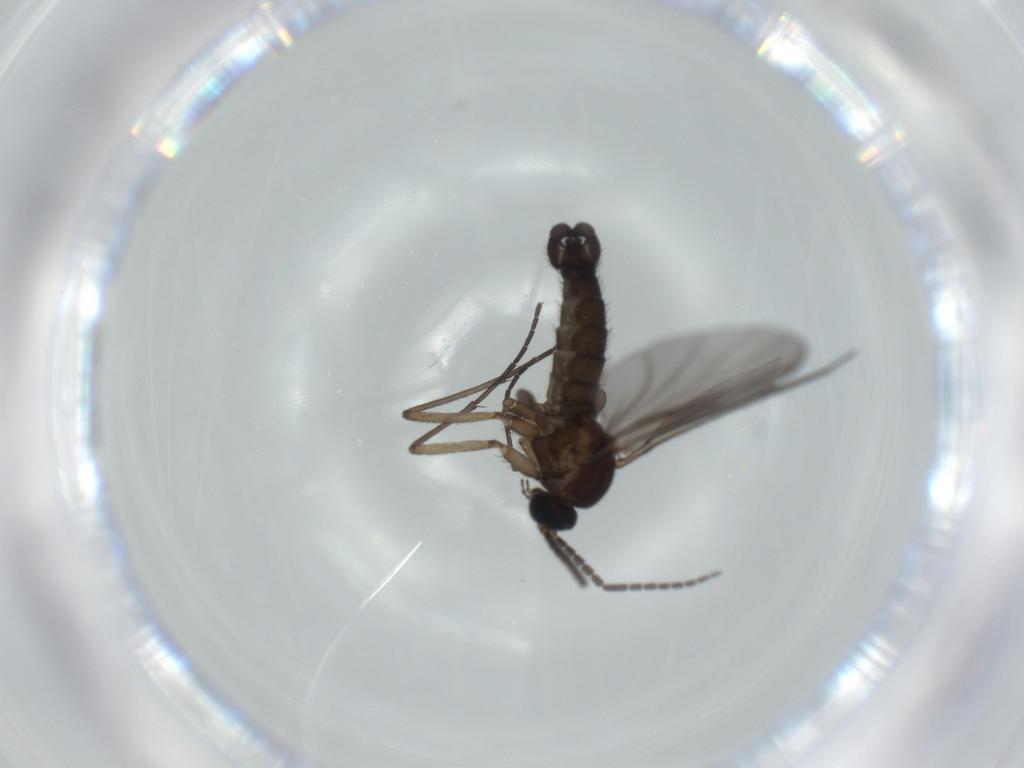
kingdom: Animalia
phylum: Arthropoda
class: Insecta
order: Diptera
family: Sciaridae
